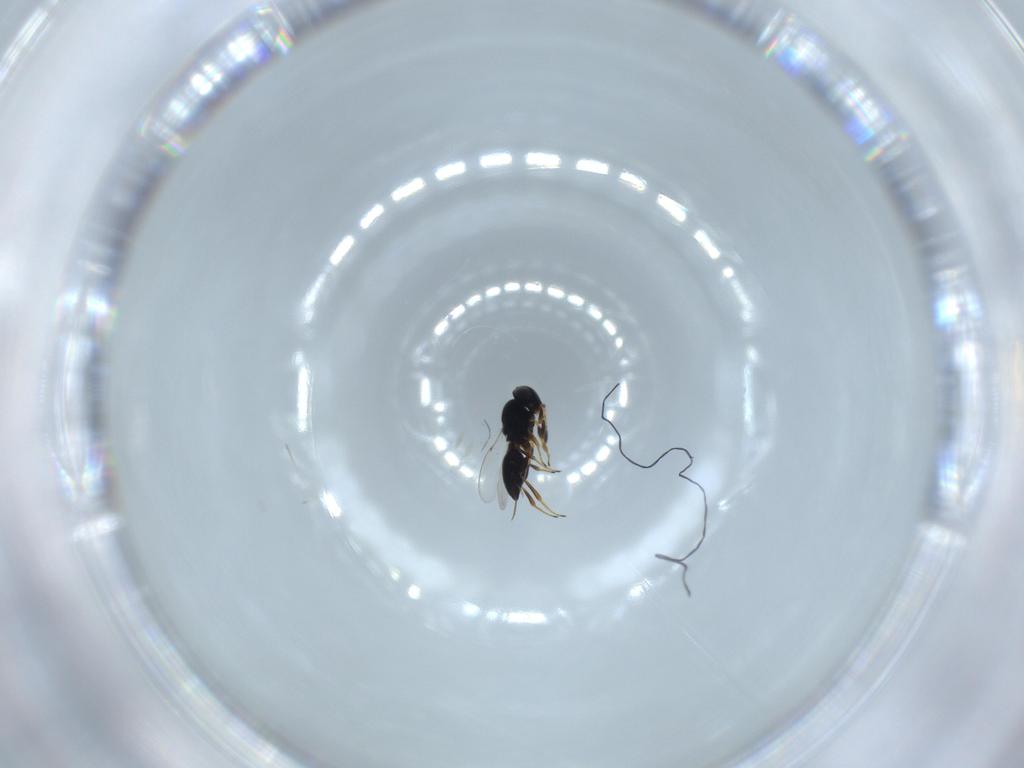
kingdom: Animalia
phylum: Arthropoda
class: Insecta
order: Hymenoptera
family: Platygastridae
